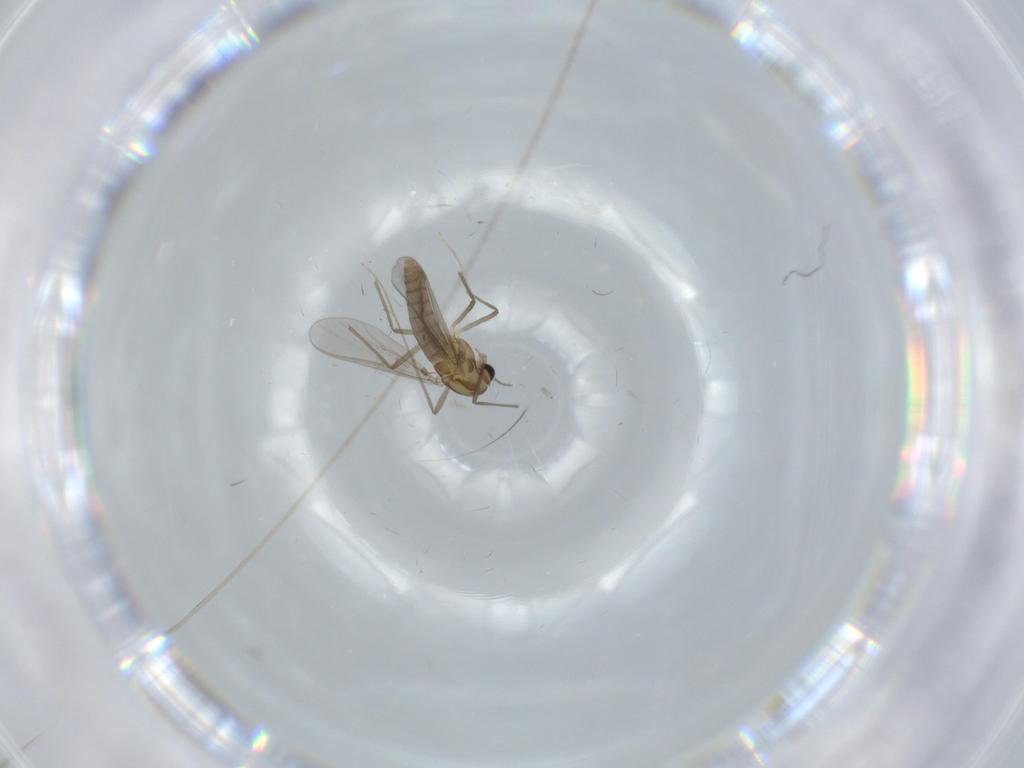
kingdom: Animalia
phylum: Arthropoda
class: Insecta
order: Diptera
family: Chironomidae
